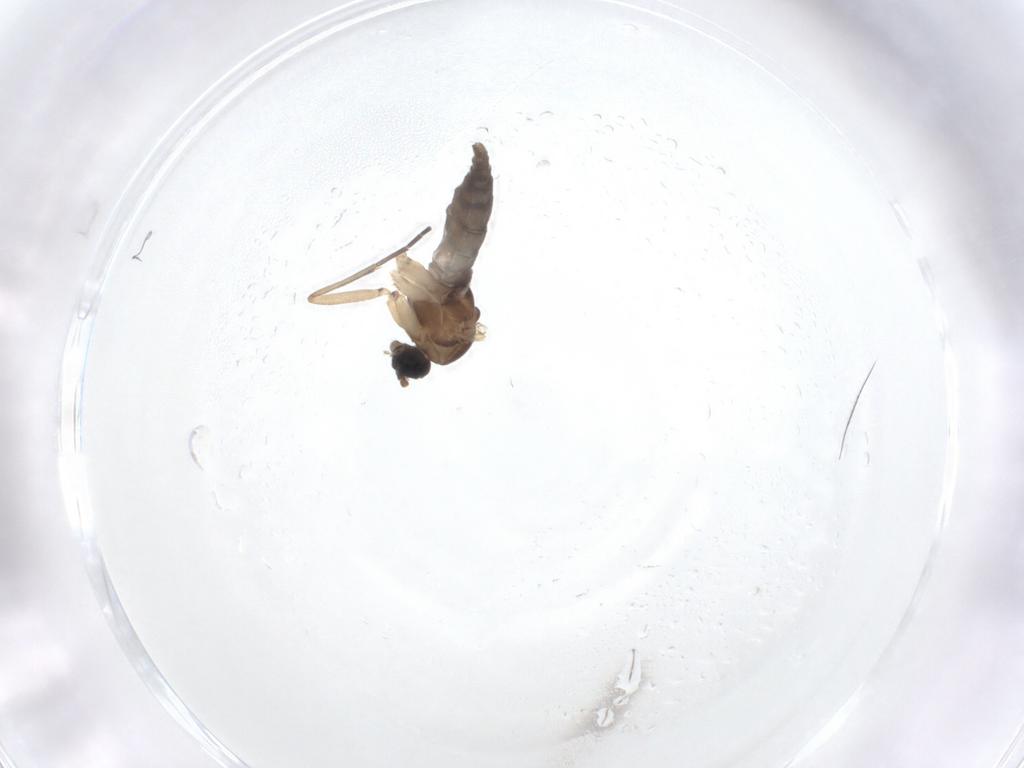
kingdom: Animalia
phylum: Arthropoda
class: Insecta
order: Diptera
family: Sciaridae
